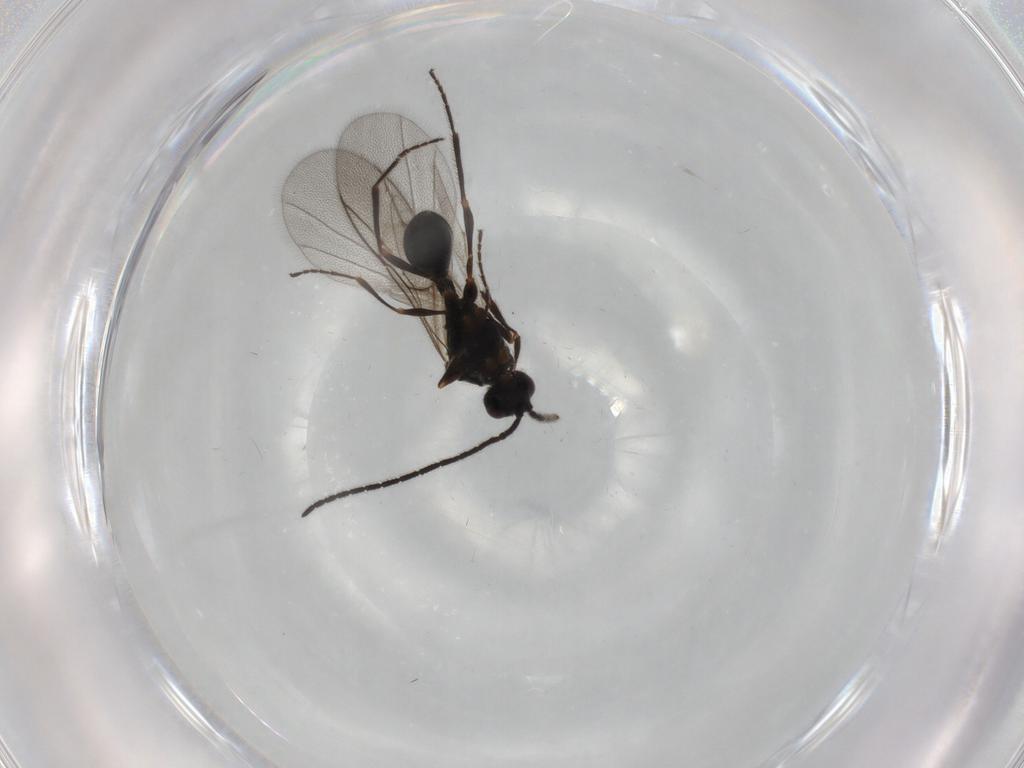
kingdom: Animalia
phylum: Arthropoda
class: Insecta
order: Hymenoptera
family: Diapriidae
